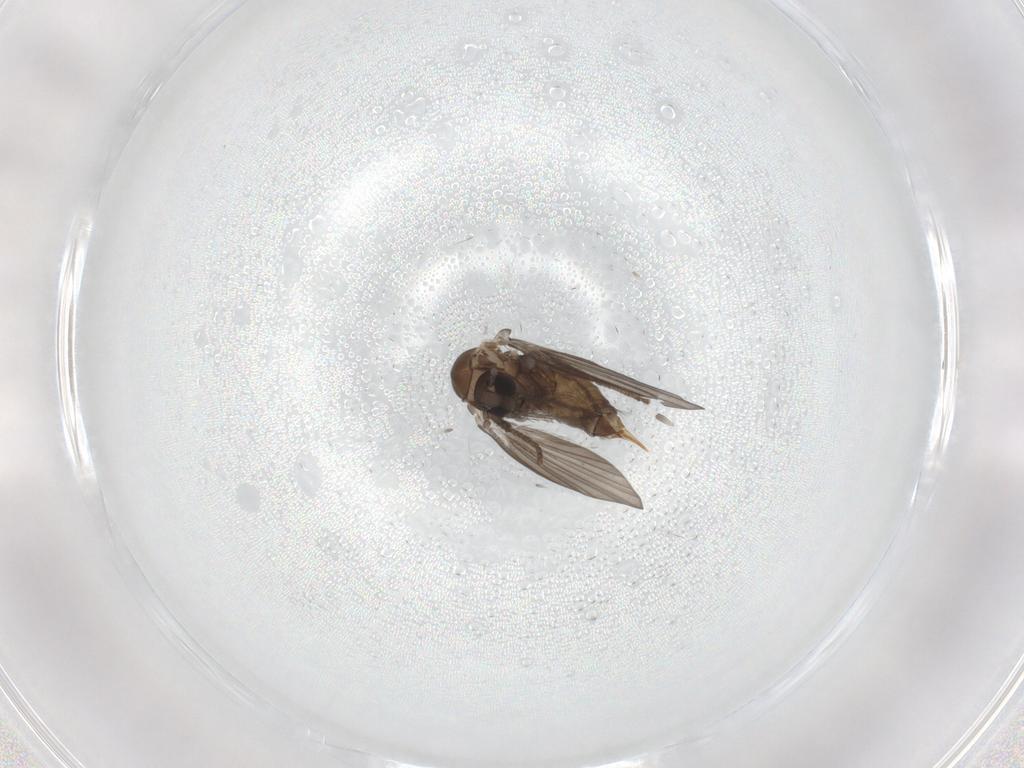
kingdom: Animalia
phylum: Arthropoda
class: Insecta
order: Diptera
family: Psychodidae
